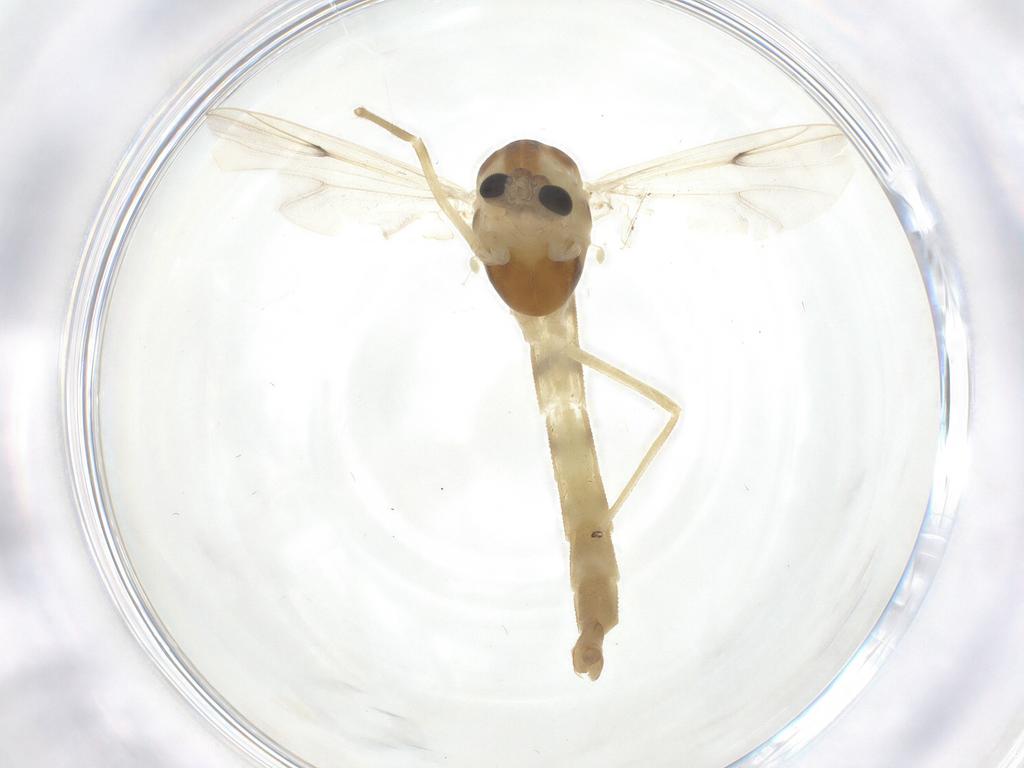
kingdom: Animalia
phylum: Arthropoda
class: Insecta
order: Diptera
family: Chironomidae
